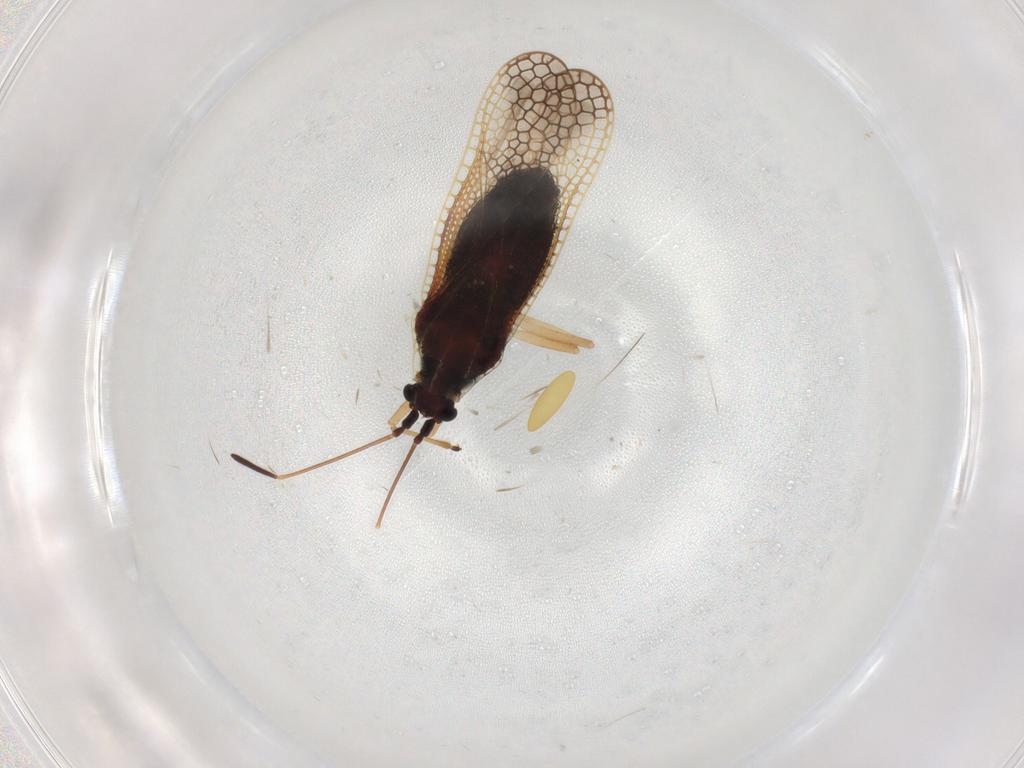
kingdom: Animalia
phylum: Arthropoda
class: Insecta
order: Hemiptera
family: Tingidae
